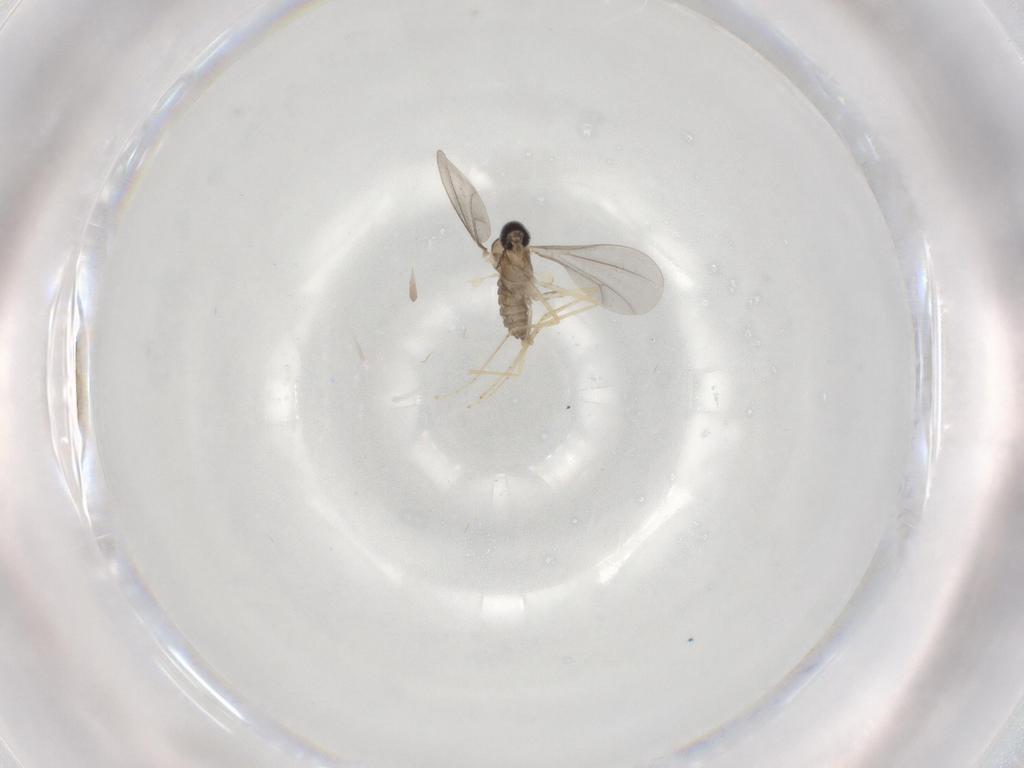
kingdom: Animalia
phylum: Arthropoda
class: Insecta
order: Diptera
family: Sciaridae
